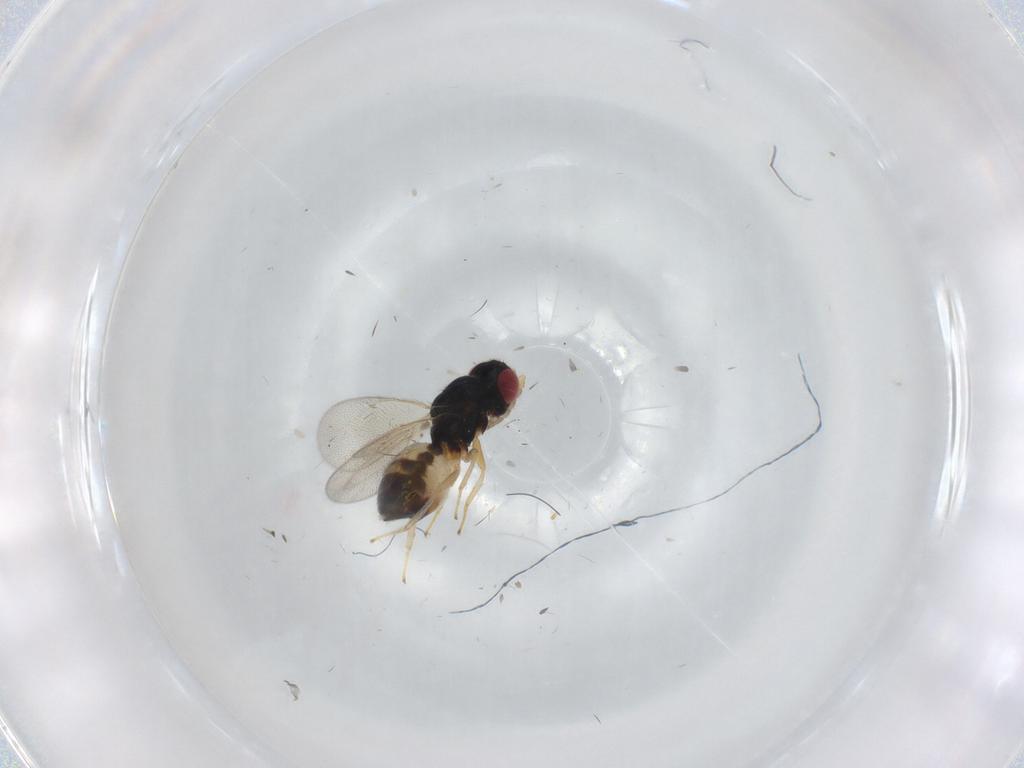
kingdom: Animalia
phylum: Arthropoda
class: Insecta
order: Hymenoptera
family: Eulophidae
